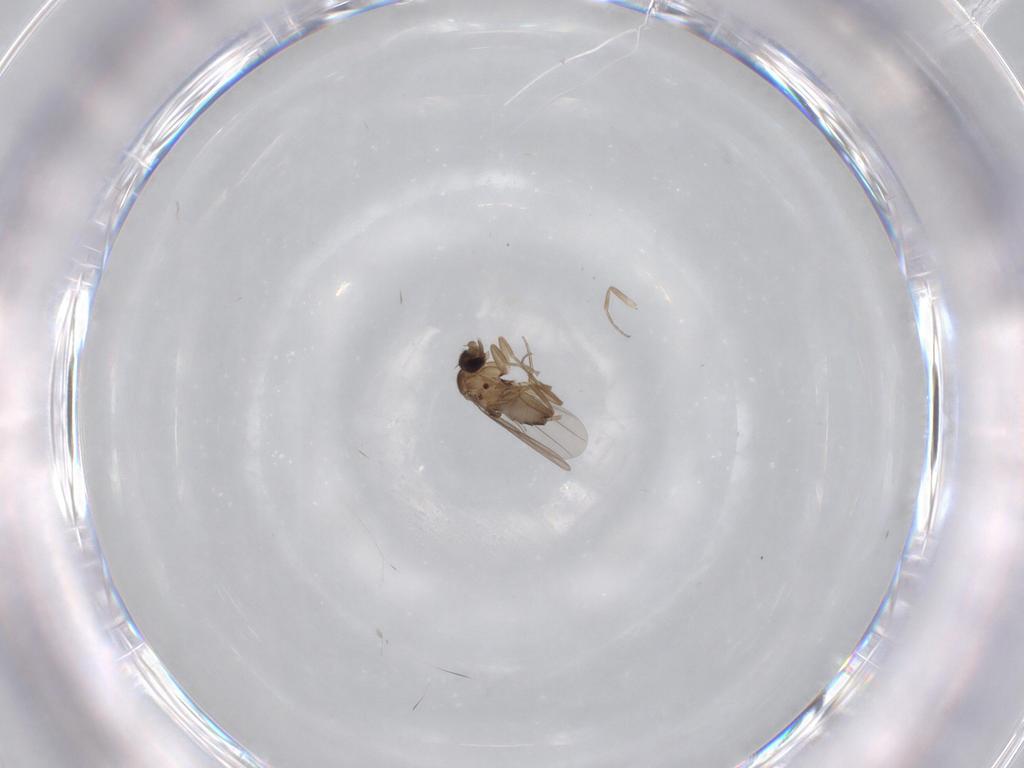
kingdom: Animalia
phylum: Arthropoda
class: Insecta
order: Diptera
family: Phoridae
